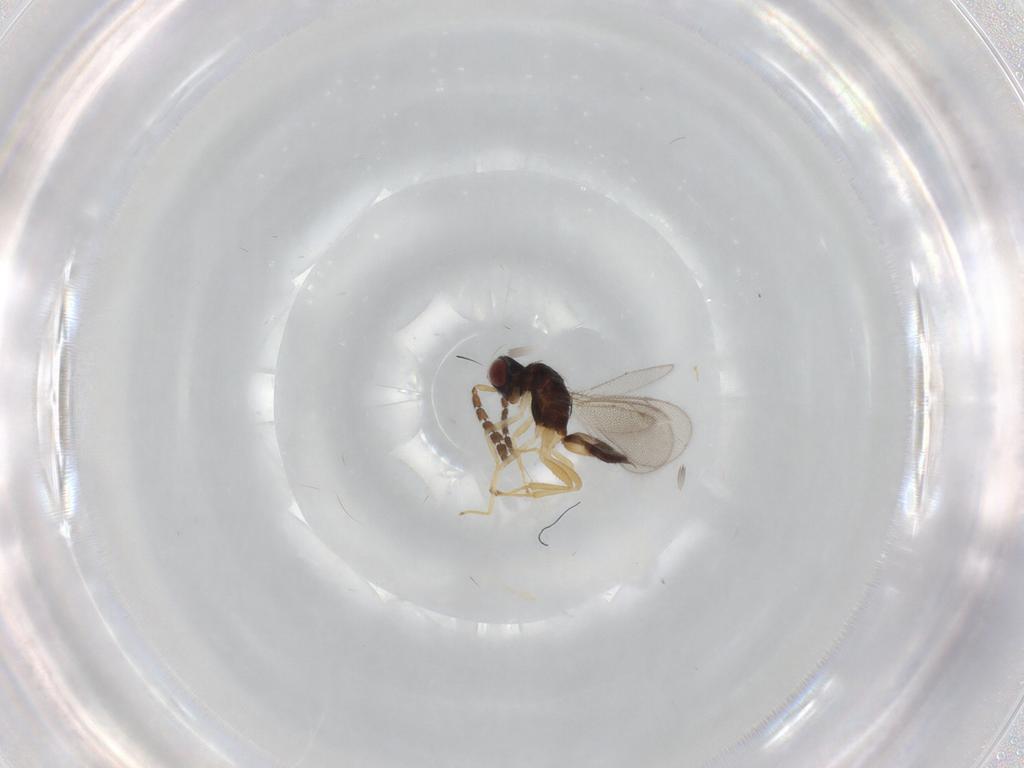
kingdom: Animalia
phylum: Arthropoda
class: Insecta
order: Hymenoptera
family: Eulophidae
